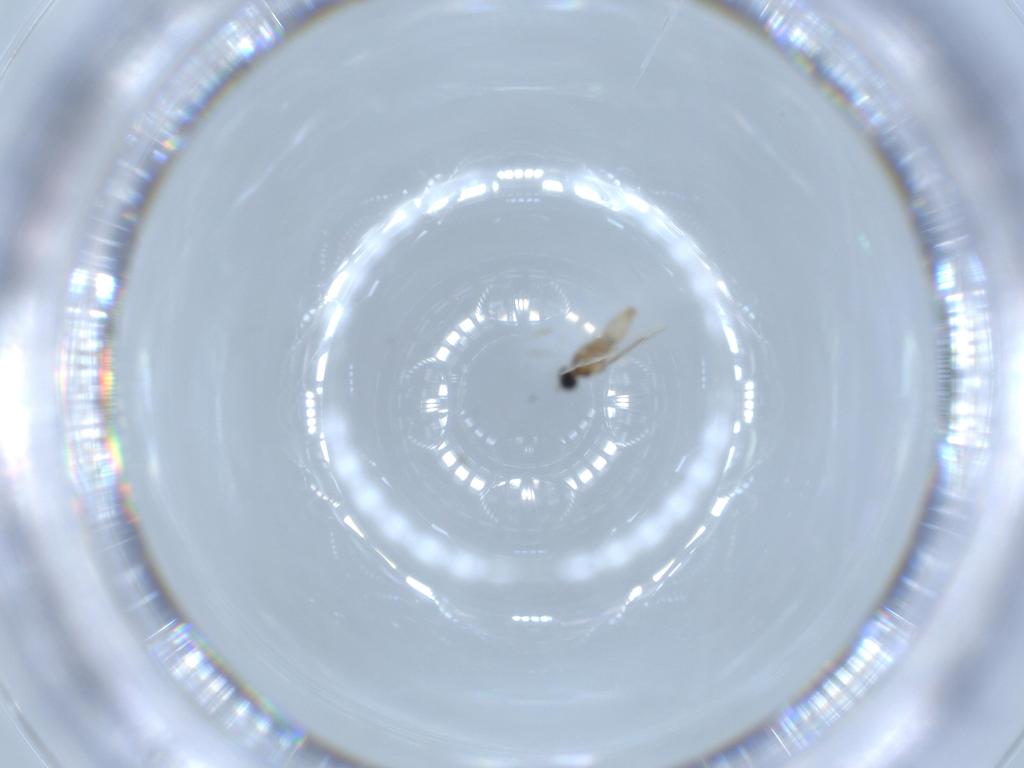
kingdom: Animalia
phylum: Arthropoda
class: Insecta
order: Diptera
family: Cecidomyiidae
